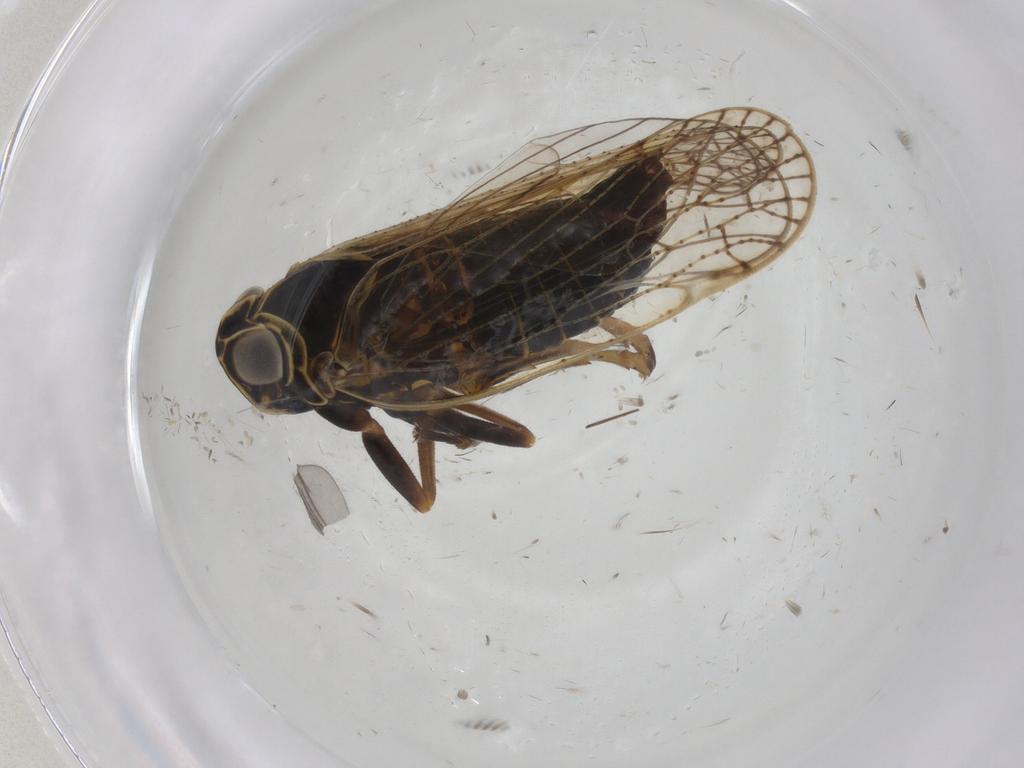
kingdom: Animalia
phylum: Arthropoda
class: Insecta
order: Hemiptera
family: Cixiidae
